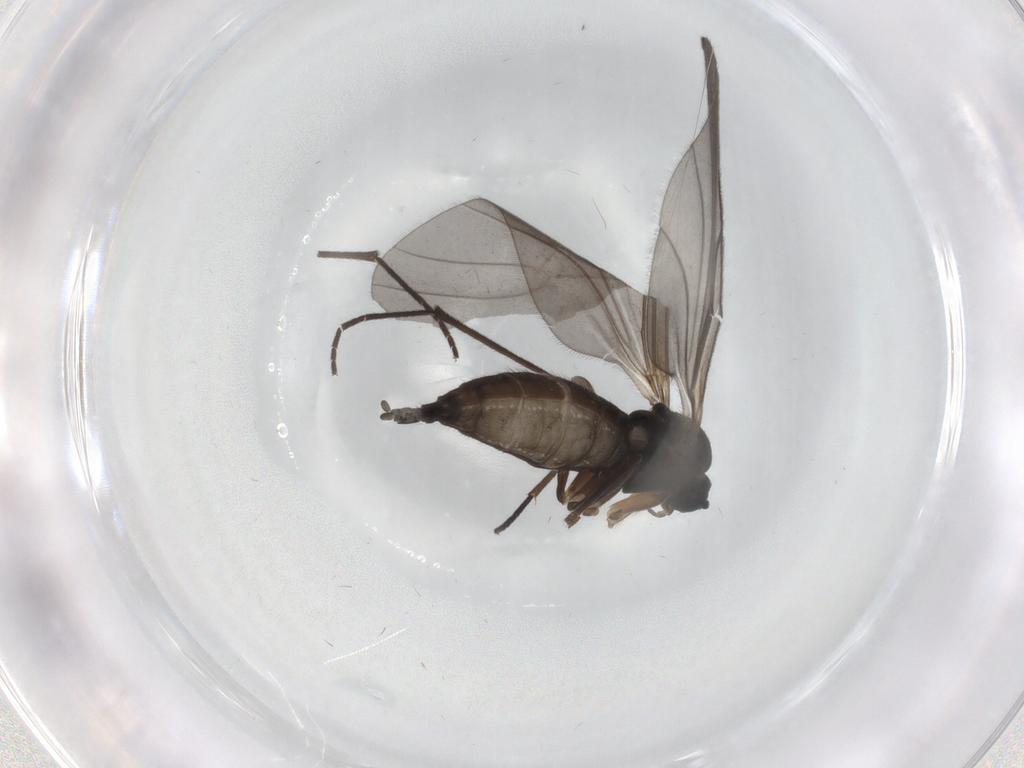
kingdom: Animalia
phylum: Arthropoda
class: Insecta
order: Diptera
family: Sciaridae
